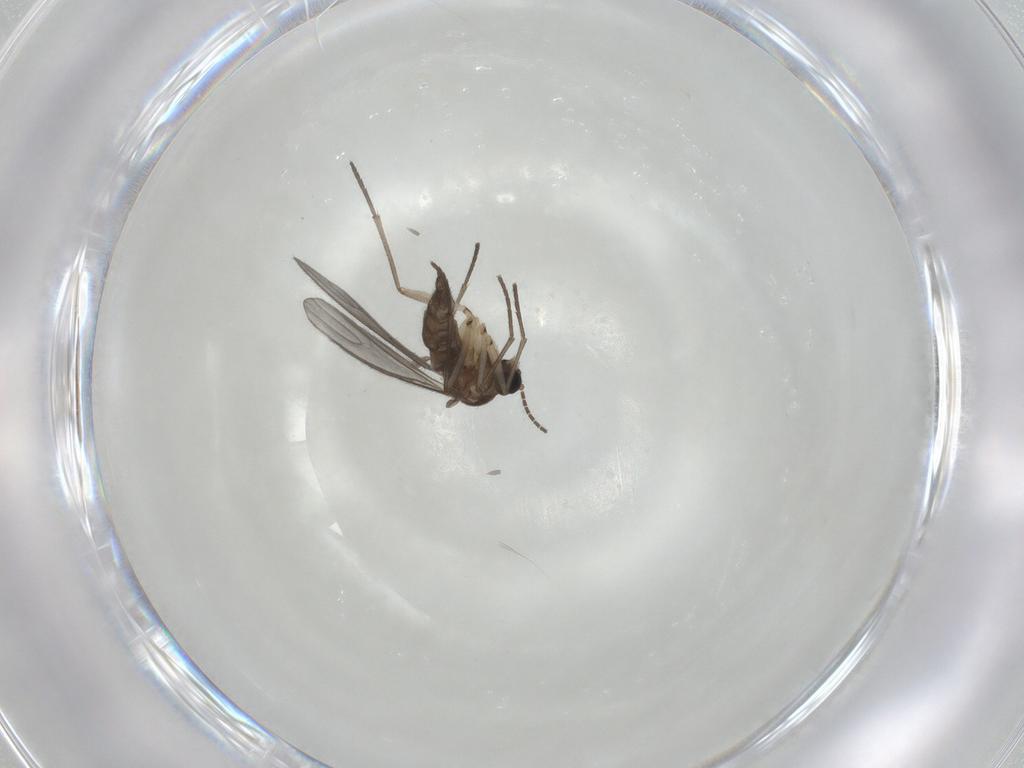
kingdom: Animalia
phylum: Arthropoda
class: Insecta
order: Diptera
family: Sciaridae
